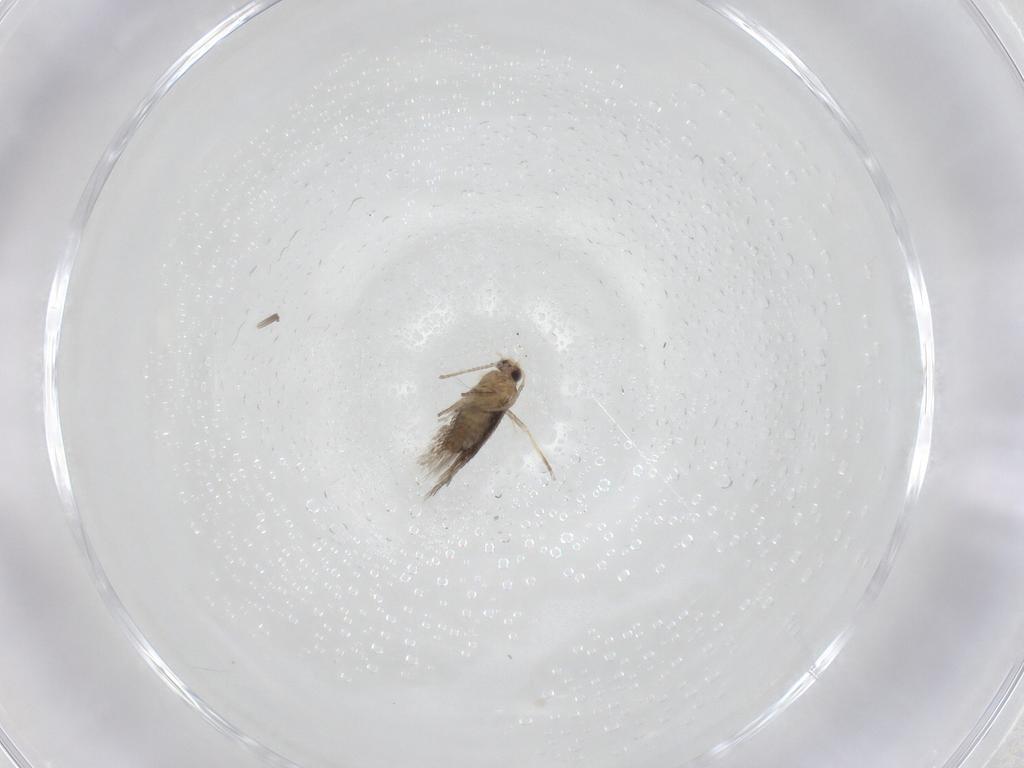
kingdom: Animalia
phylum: Arthropoda
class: Insecta
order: Lepidoptera
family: Nepticulidae
